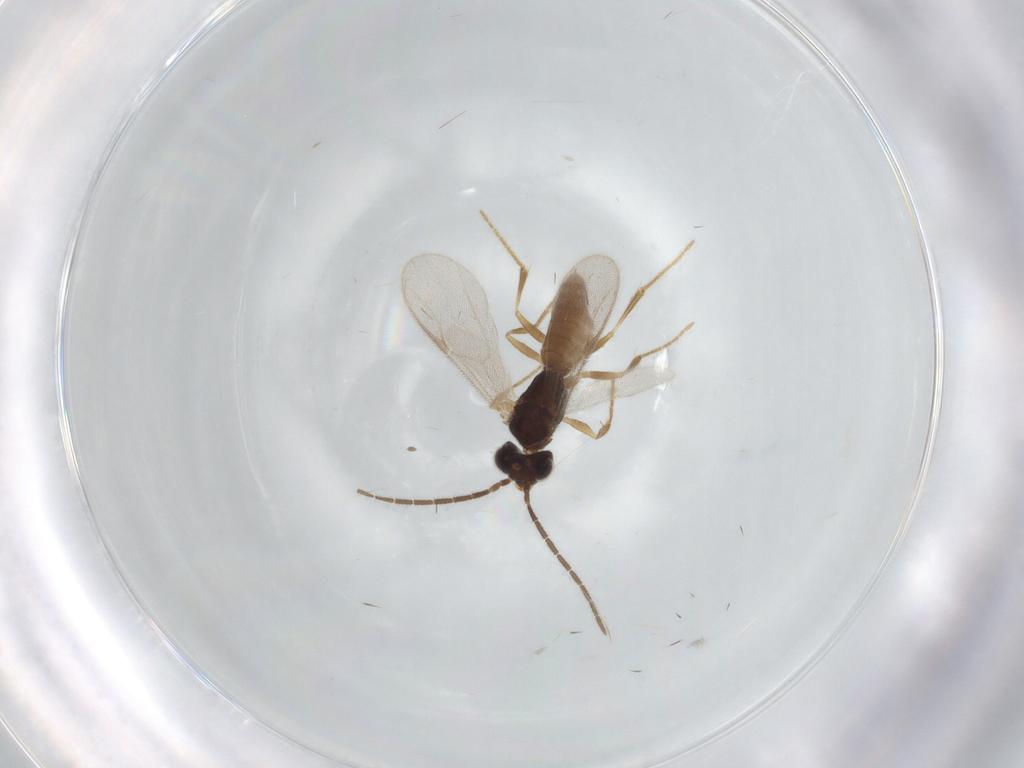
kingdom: Animalia
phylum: Arthropoda
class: Insecta
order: Hymenoptera
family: Dryinidae
